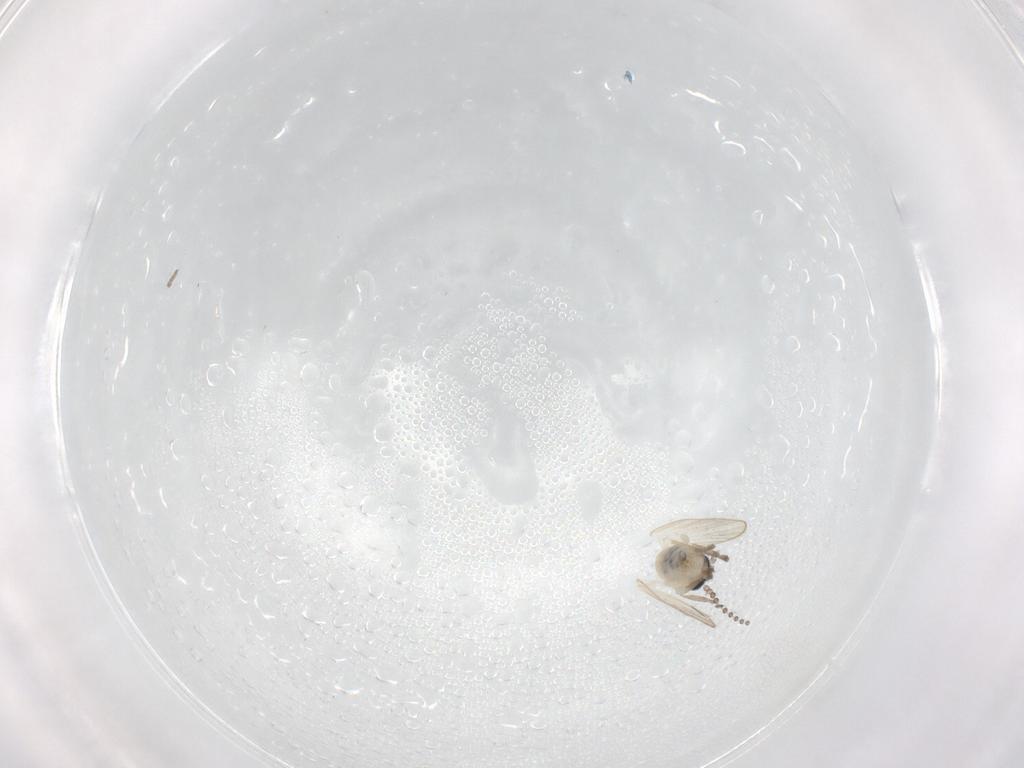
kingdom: Animalia
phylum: Arthropoda
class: Insecta
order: Diptera
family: Psychodidae
